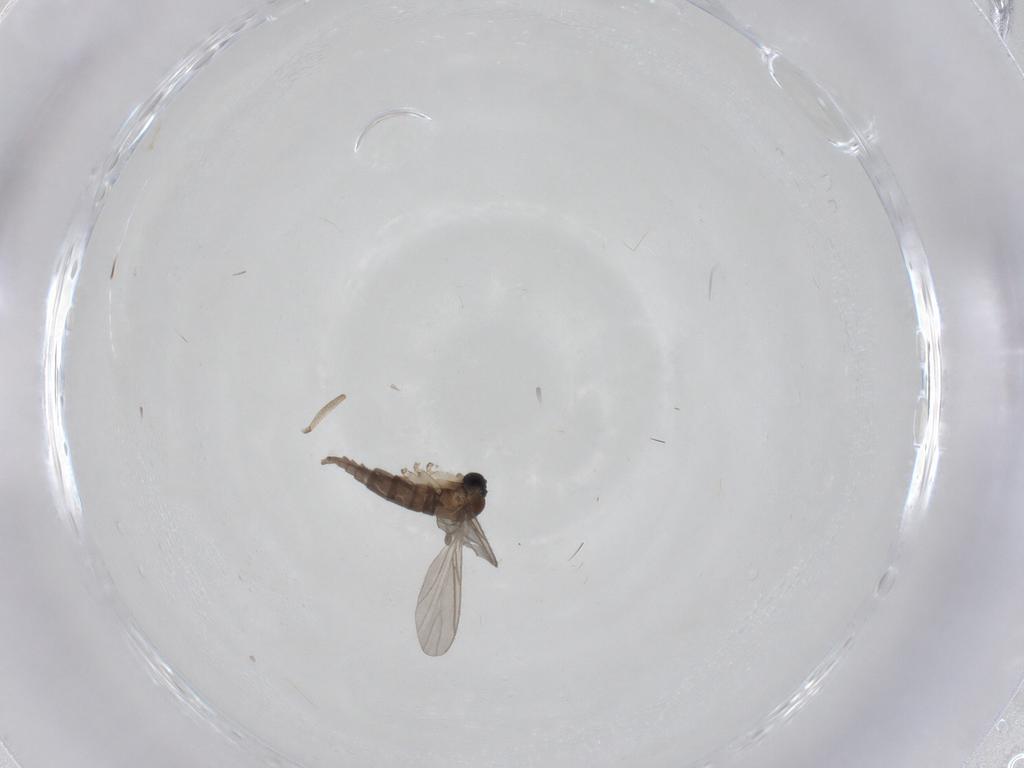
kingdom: Animalia
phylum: Arthropoda
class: Insecta
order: Diptera
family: Sciaridae
